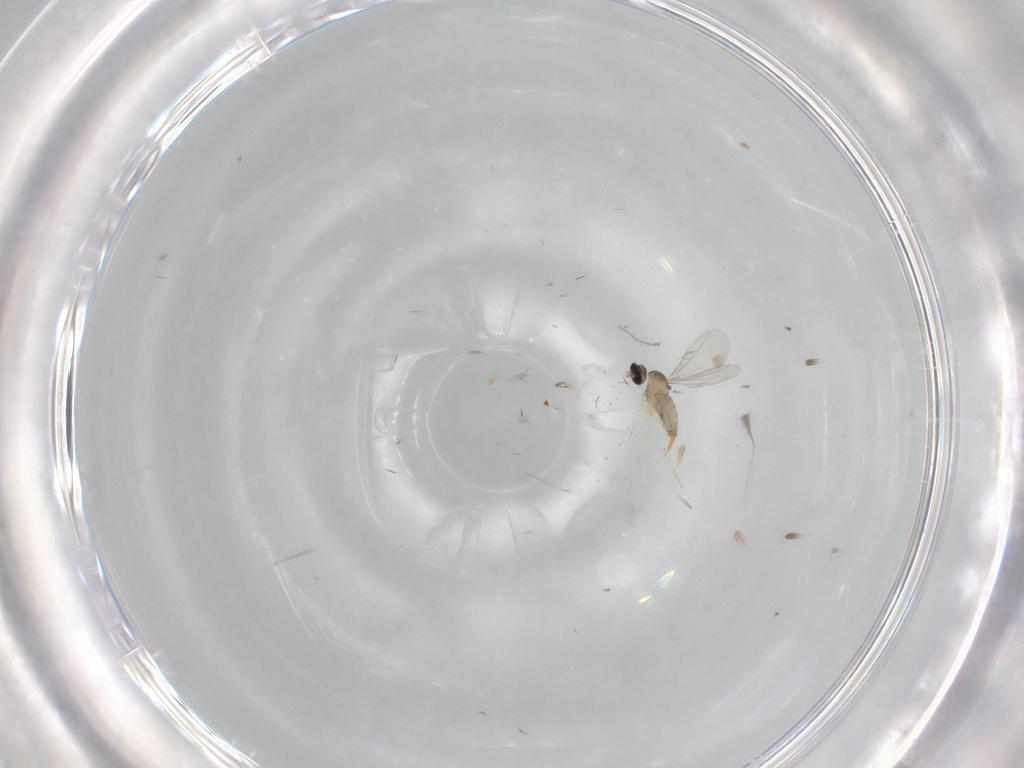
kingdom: Animalia
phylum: Arthropoda
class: Insecta
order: Diptera
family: Cecidomyiidae
